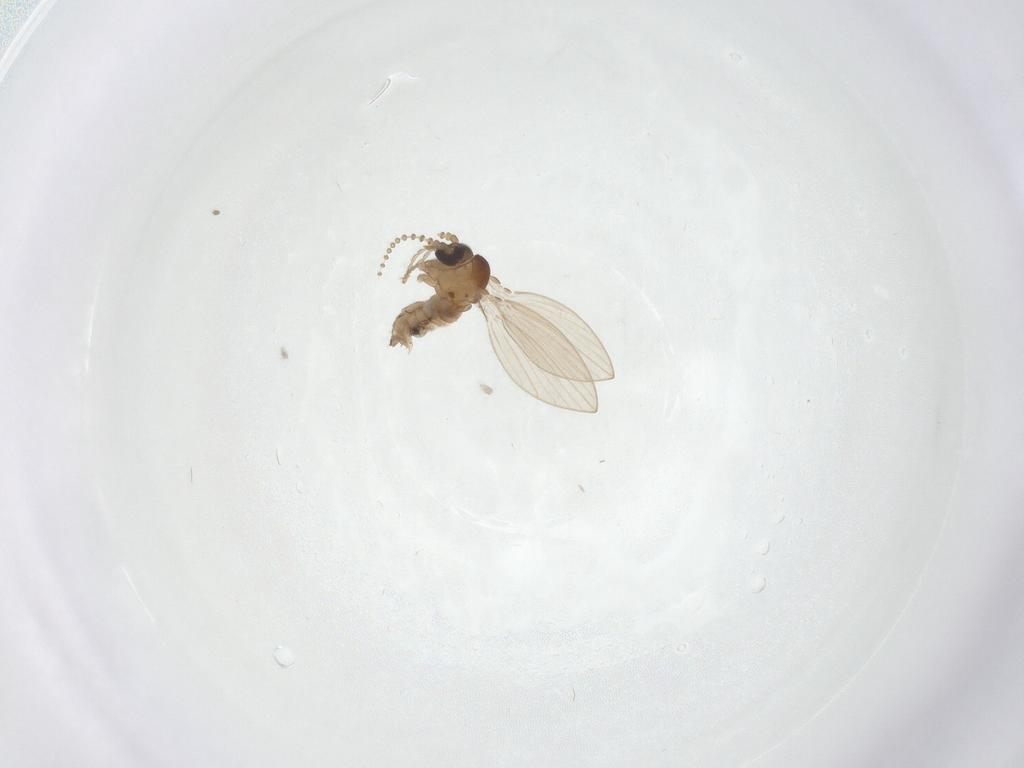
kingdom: Animalia
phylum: Arthropoda
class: Insecta
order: Diptera
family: Psychodidae
